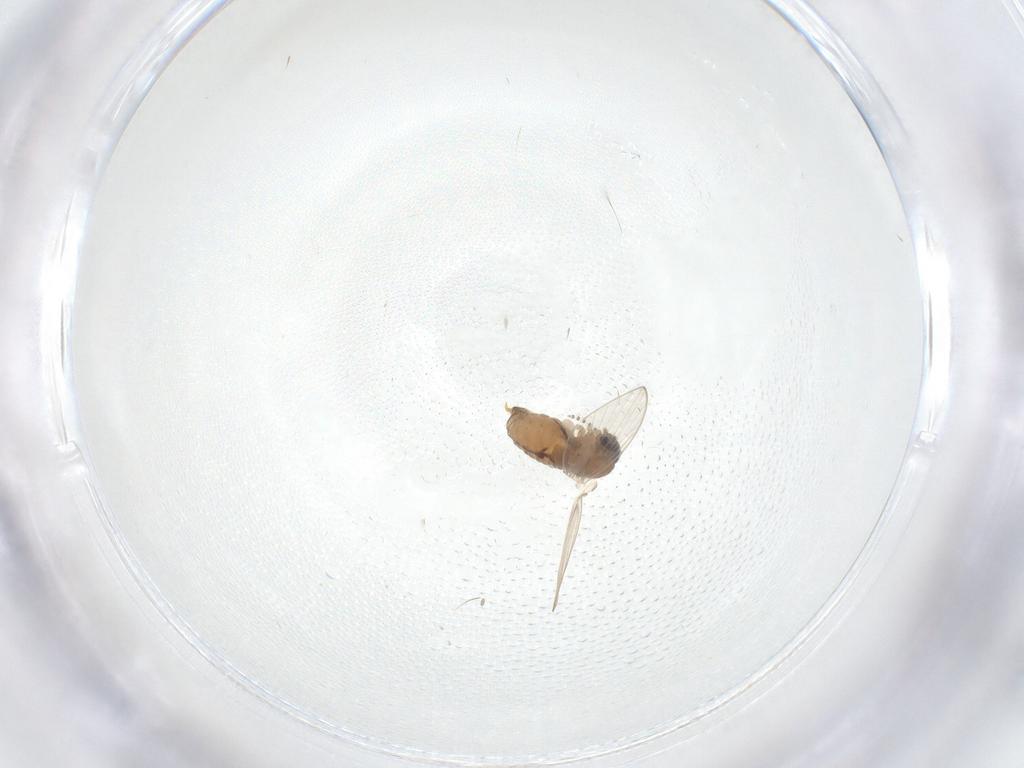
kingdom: Animalia
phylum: Arthropoda
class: Insecta
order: Diptera
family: Psychodidae
